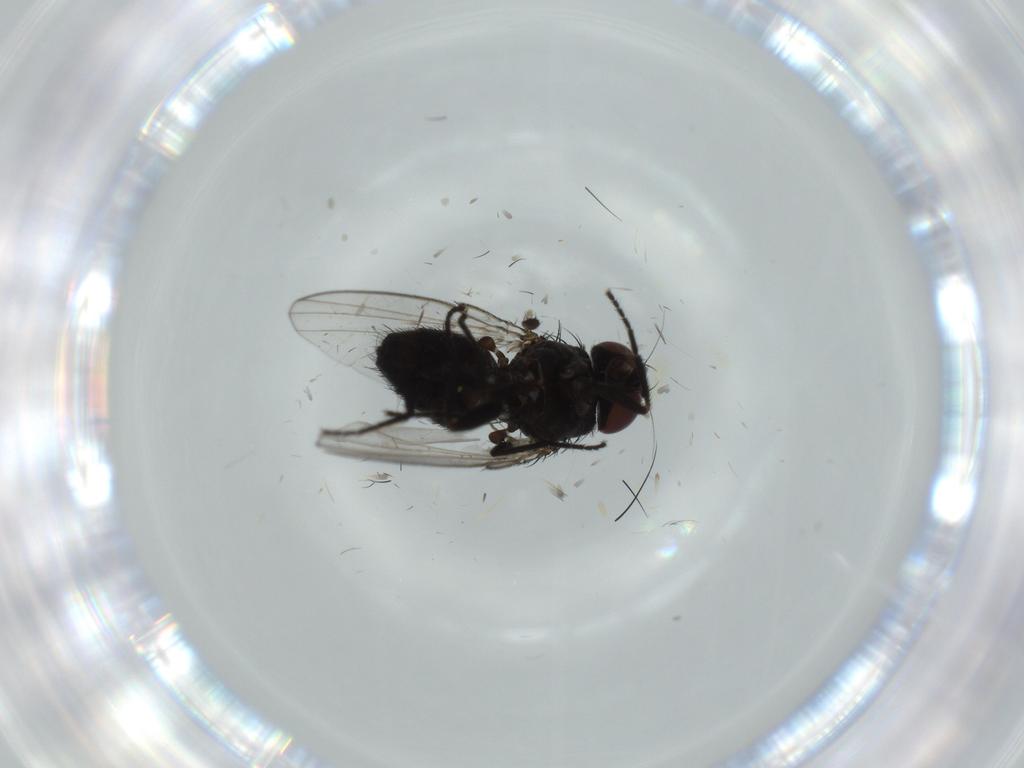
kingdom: Animalia
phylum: Arthropoda
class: Insecta
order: Diptera
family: Milichiidae
